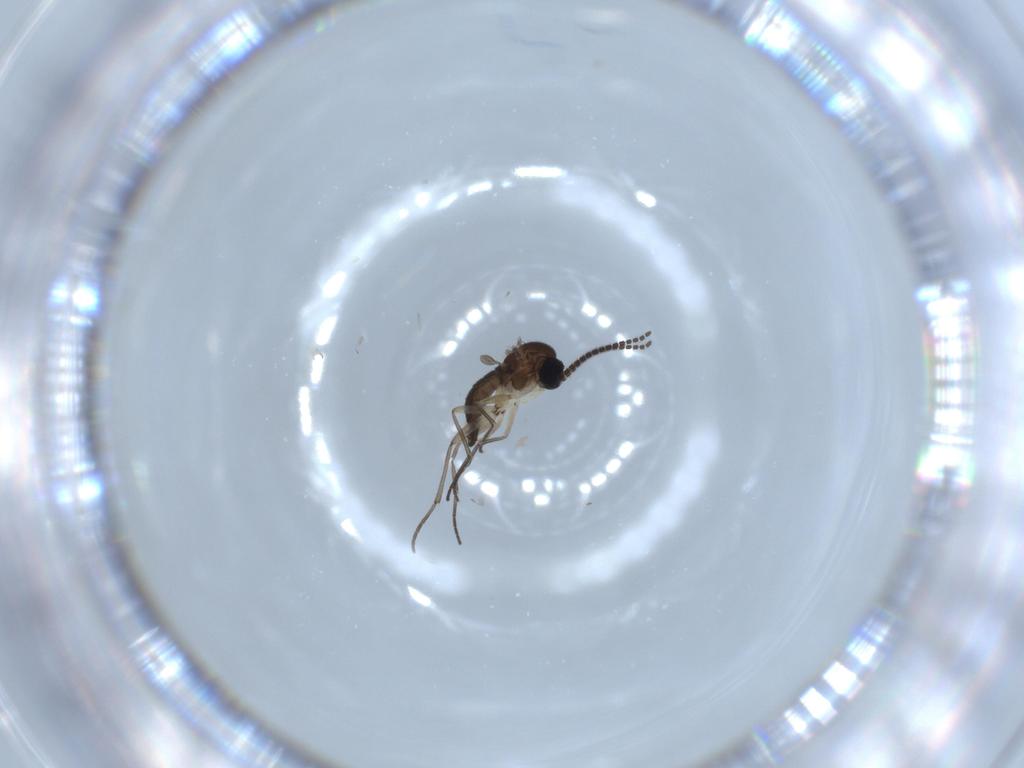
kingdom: Animalia
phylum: Arthropoda
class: Insecta
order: Diptera
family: Sciaridae
